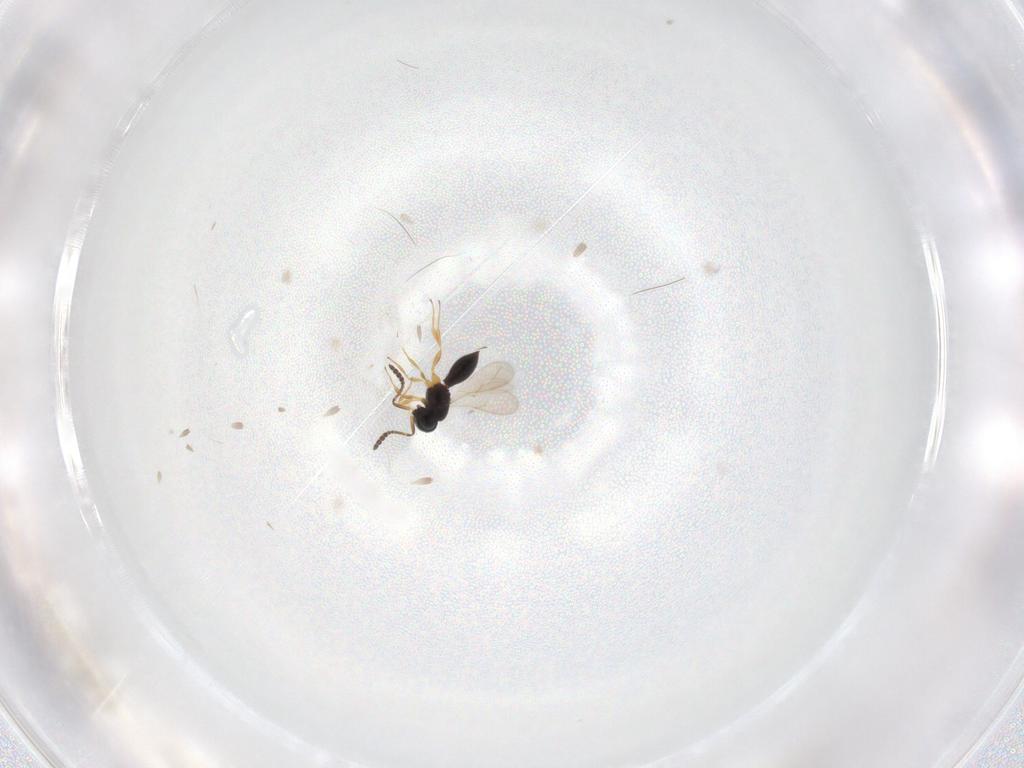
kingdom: Animalia
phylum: Arthropoda
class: Insecta
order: Hymenoptera
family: Scelionidae
